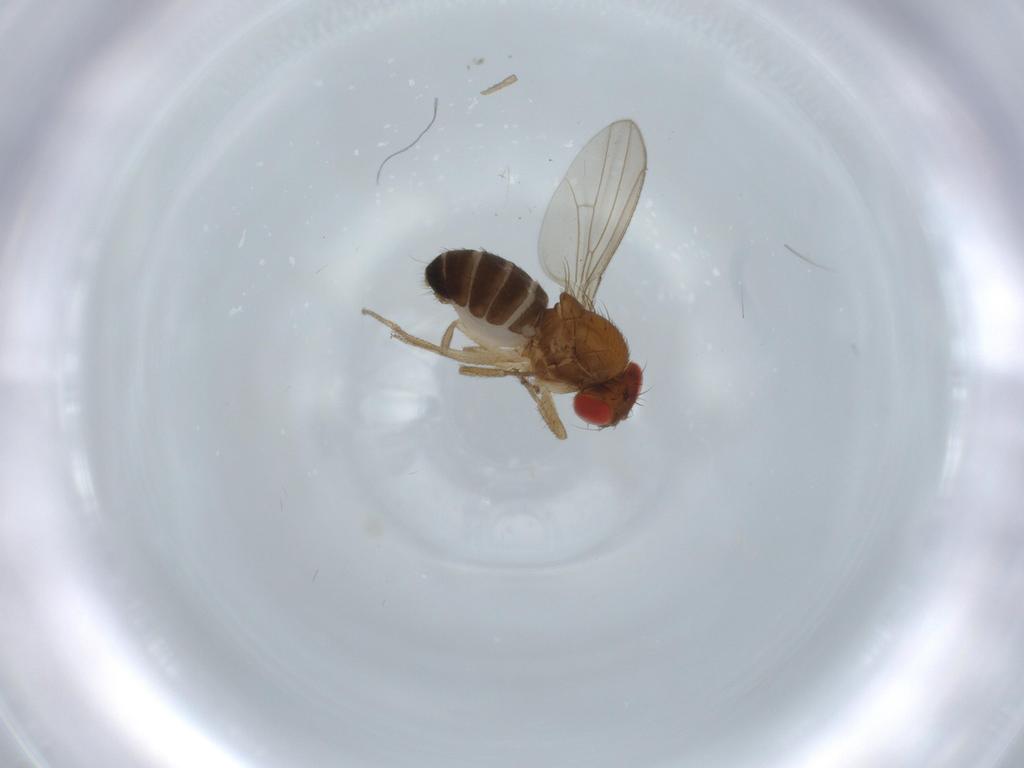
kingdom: Animalia
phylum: Arthropoda
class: Insecta
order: Diptera
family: Drosophilidae
